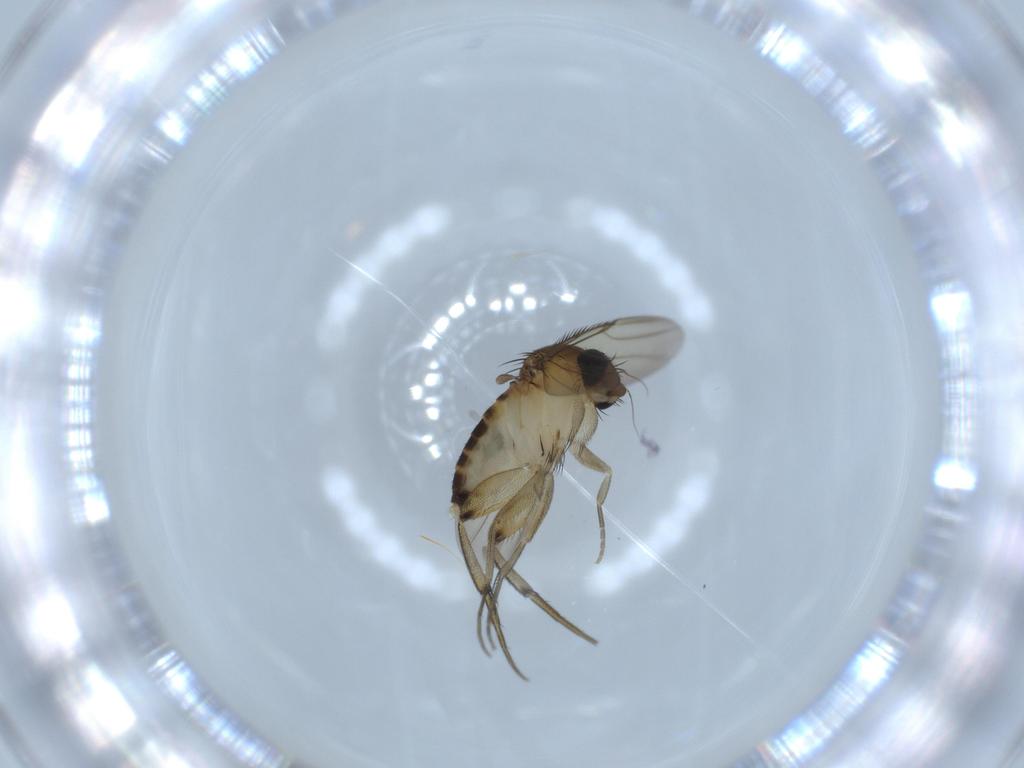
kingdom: Animalia
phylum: Arthropoda
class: Insecta
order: Diptera
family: Phoridae
